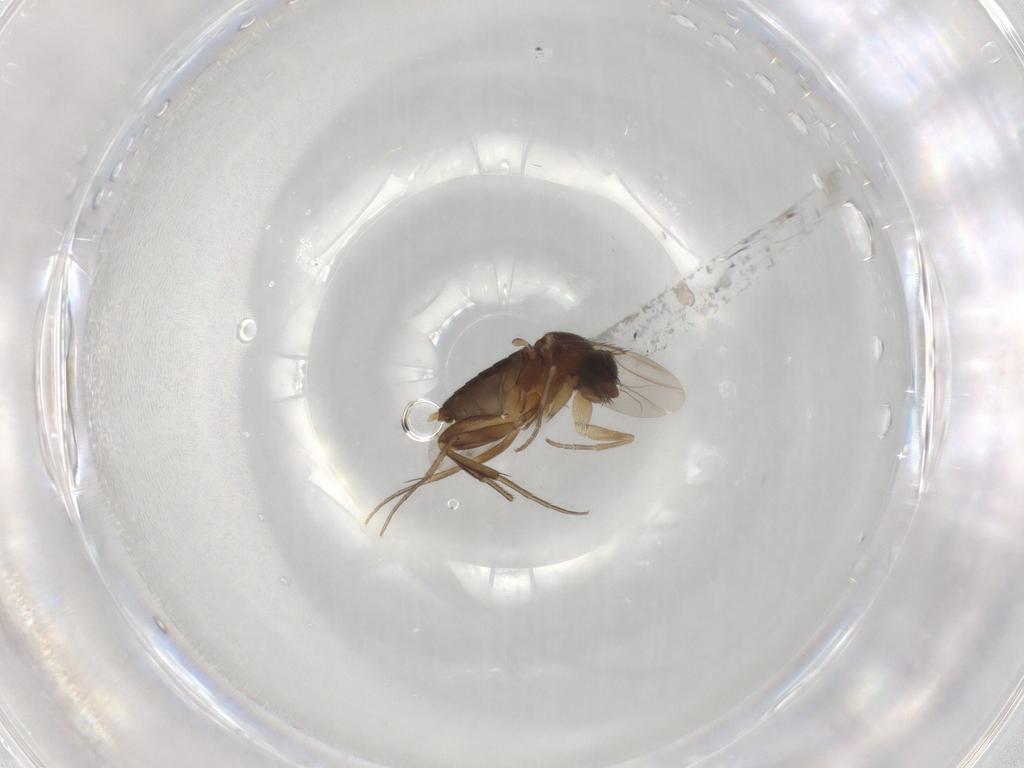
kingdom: Animalia
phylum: Arthropoda
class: Insecta
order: Diptera
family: Phoridae
